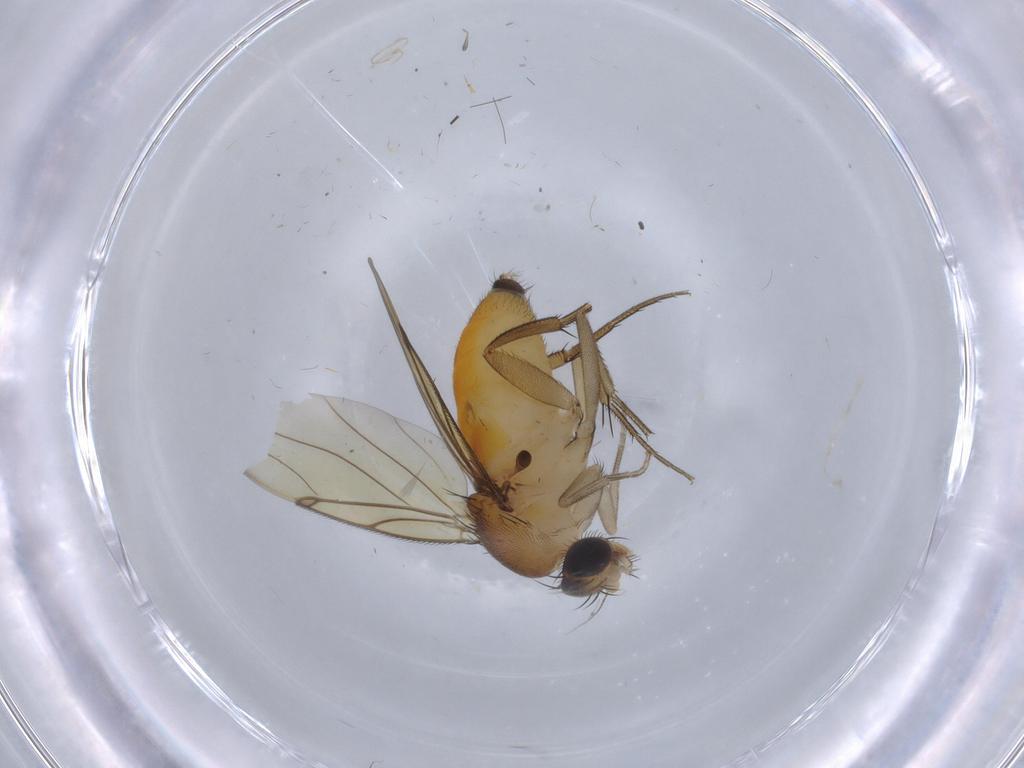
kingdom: Animalia
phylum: Arthropoda
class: Insecta
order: Diptera
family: Phoridae
